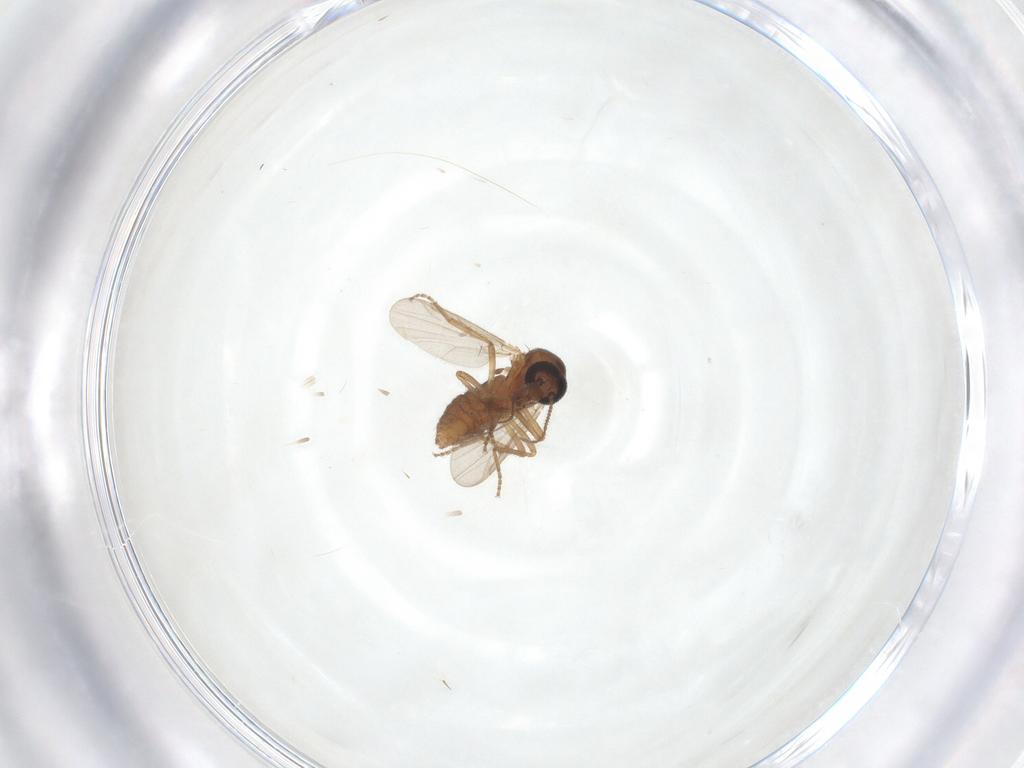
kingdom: Animalia
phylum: Arthropoda
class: Insecta
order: Diptera
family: Ceratopogonidae
